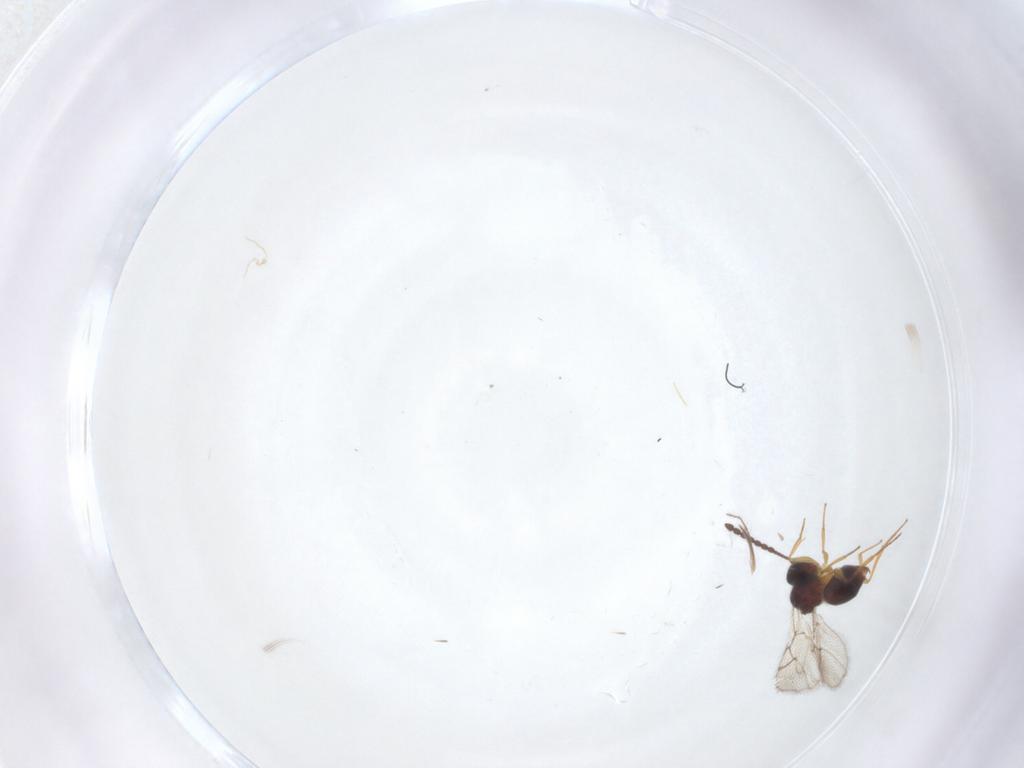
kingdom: Animalia
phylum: Arthropoda
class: Insecta
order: Hymenoptera
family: Figitidae
